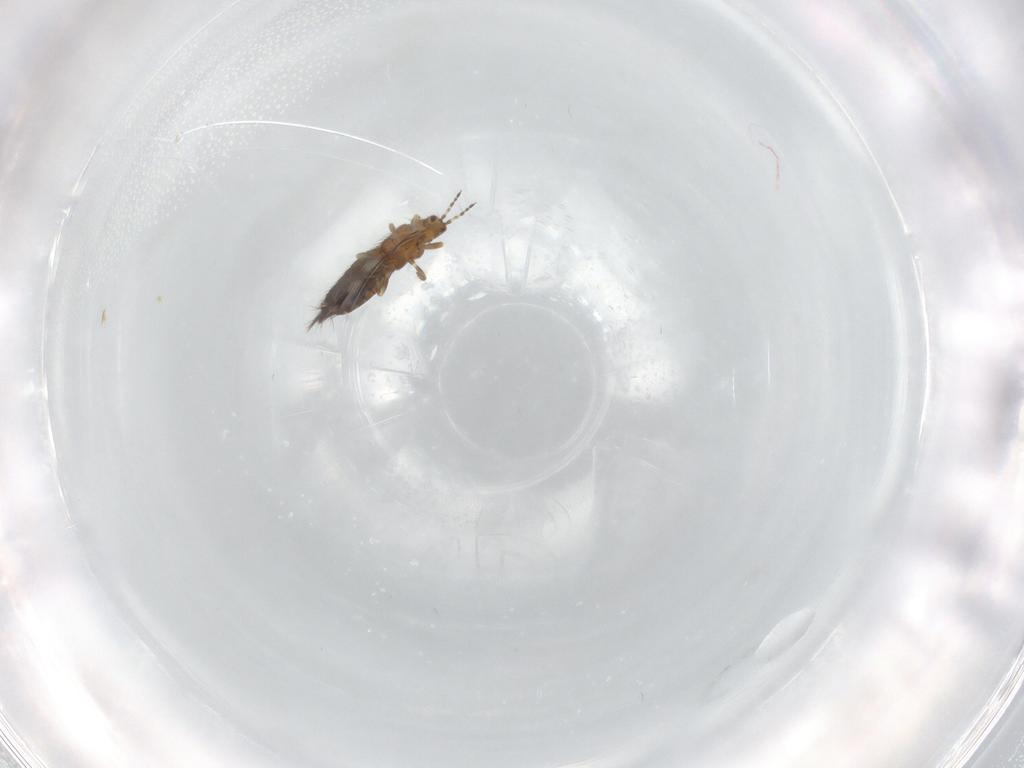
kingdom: Animalia
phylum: Arthropoda
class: Insecta
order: Thysanoptera
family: Thripidae
